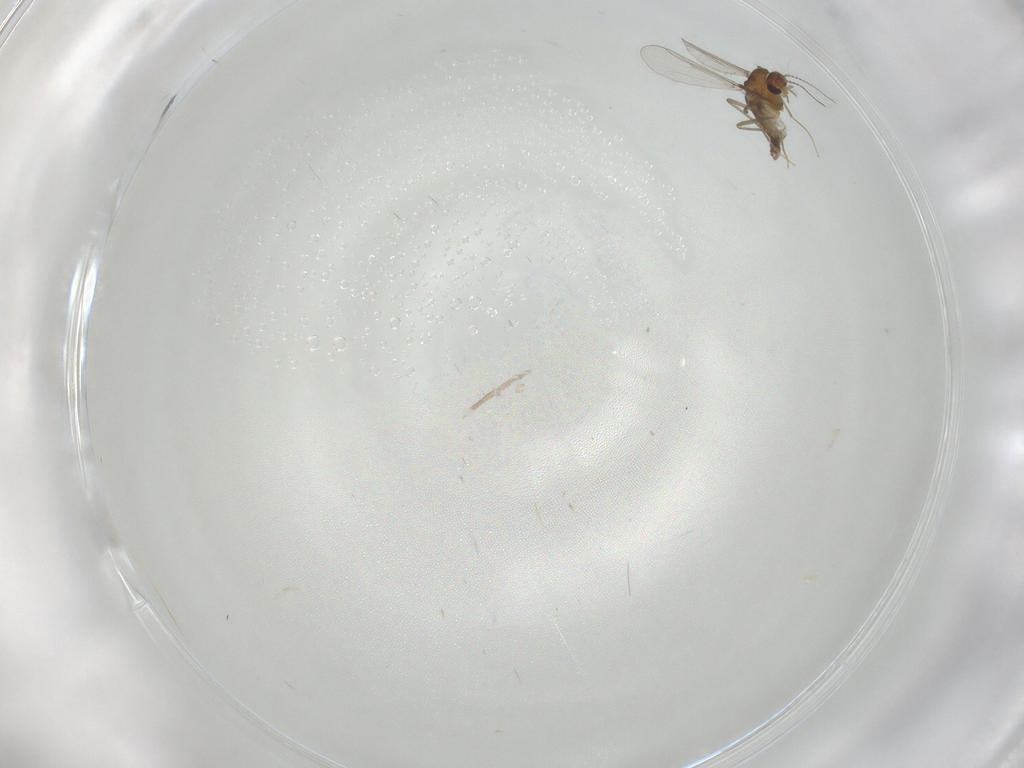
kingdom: Animalia
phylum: Arthropoda
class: Insecta
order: Diptera
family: Chironomidae
